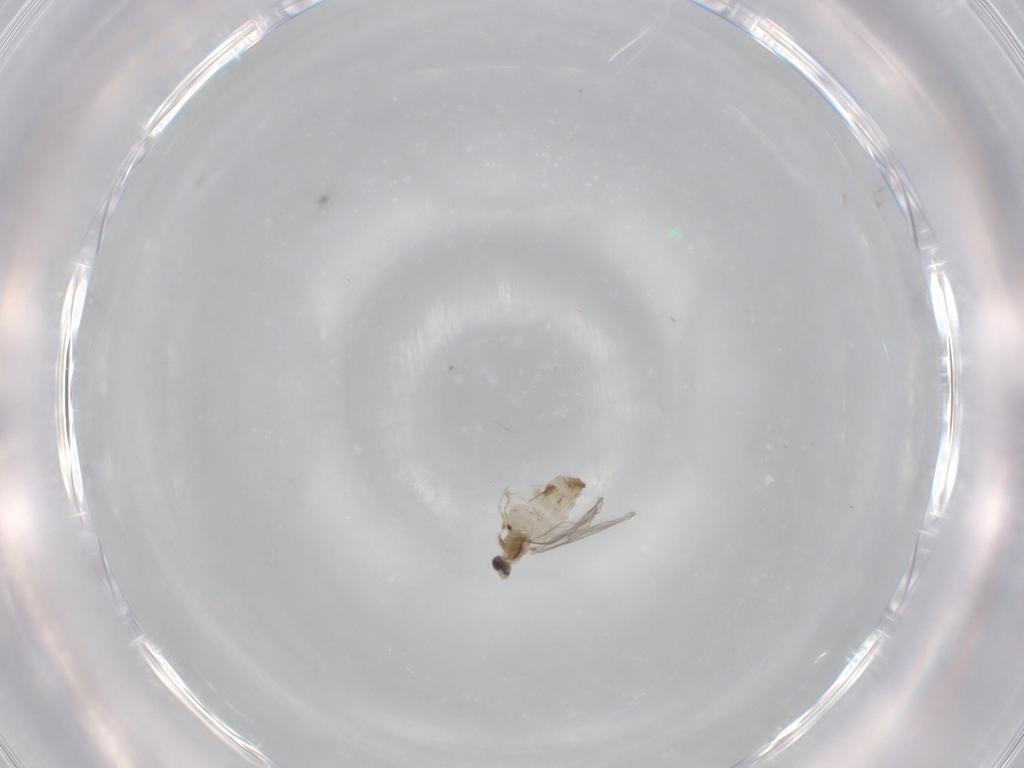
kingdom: Animalia
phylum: Arthropoda
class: Insecta
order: Diptera
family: Cecidomyiidae
